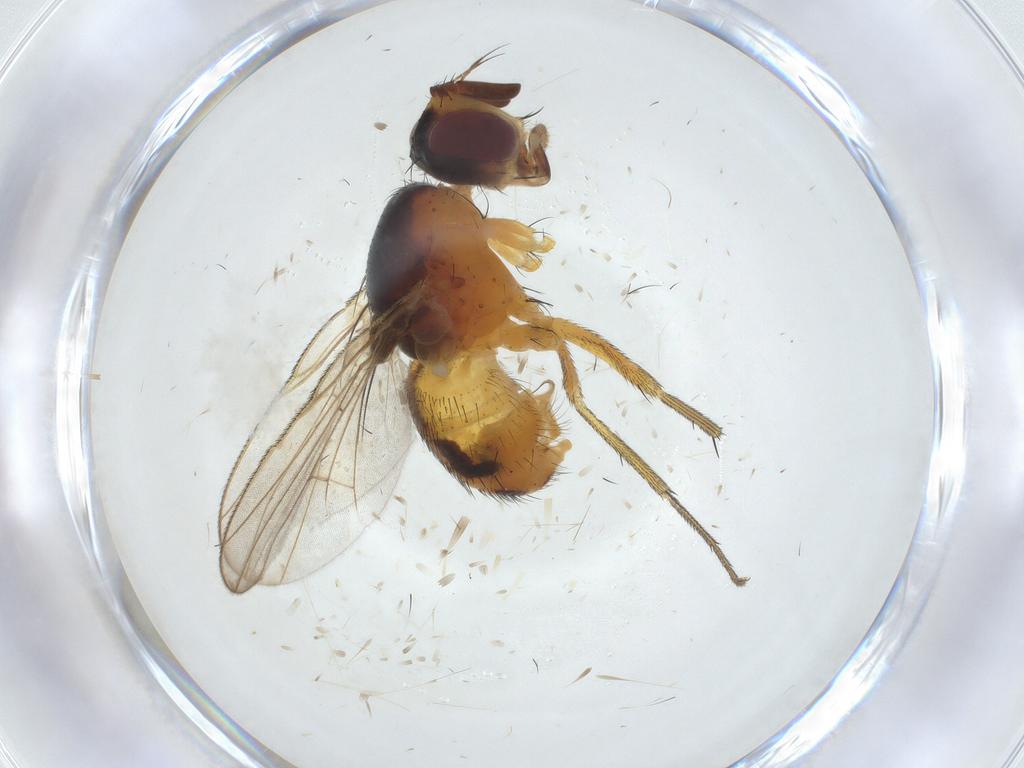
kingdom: Animalia
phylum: Arthropoda
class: Insecta
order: Diptera
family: Muscidae
